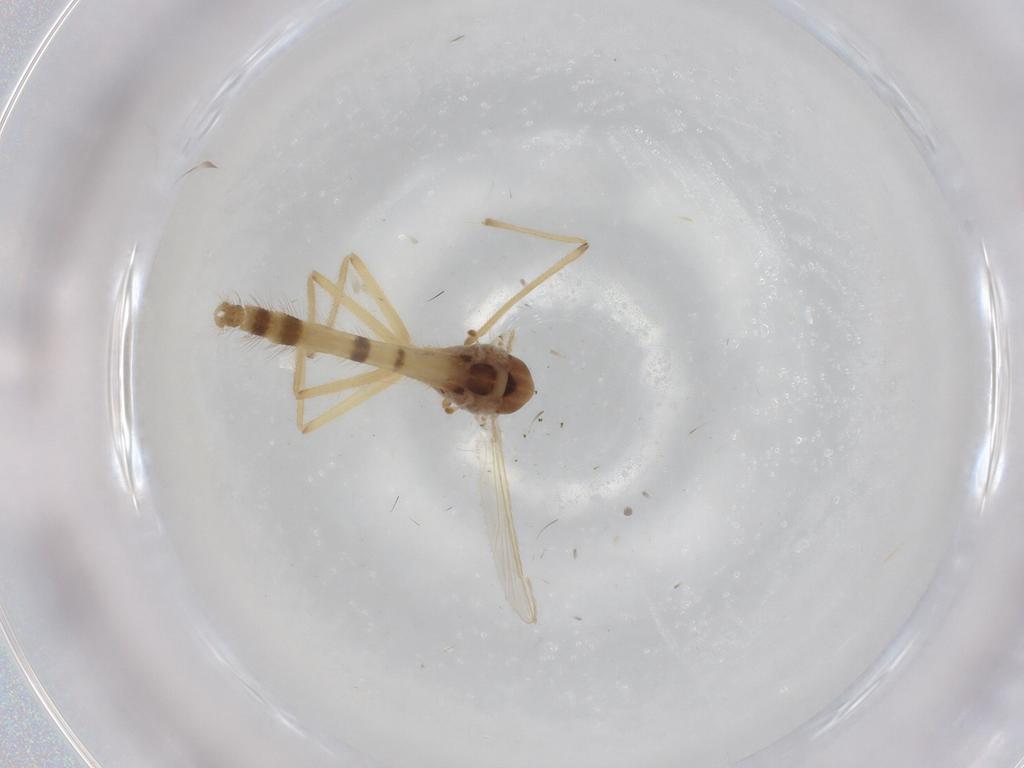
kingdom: Animalia
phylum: Arthropoda
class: Insecta
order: Diptera
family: Chironomidae
